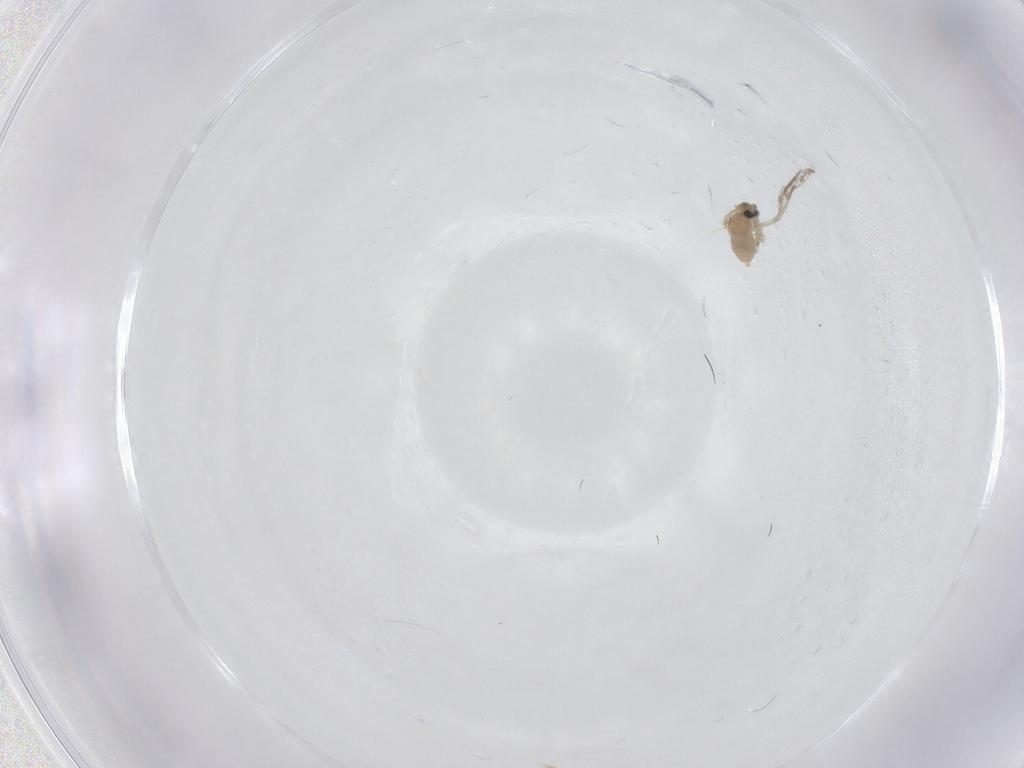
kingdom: Animalia
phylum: Arthropoda
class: Insecta
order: Diptera
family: Cecidomyiidae
